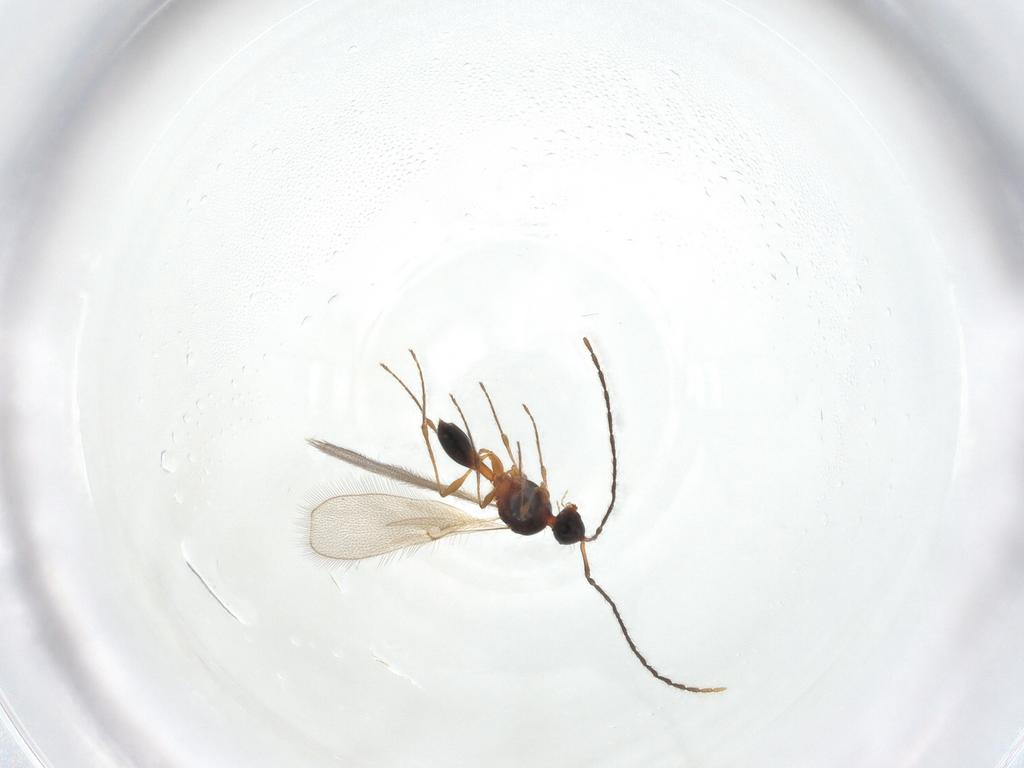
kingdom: Animalia
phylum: Arthropoda
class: Insecta
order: Hymenoptera
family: Diapriidae
